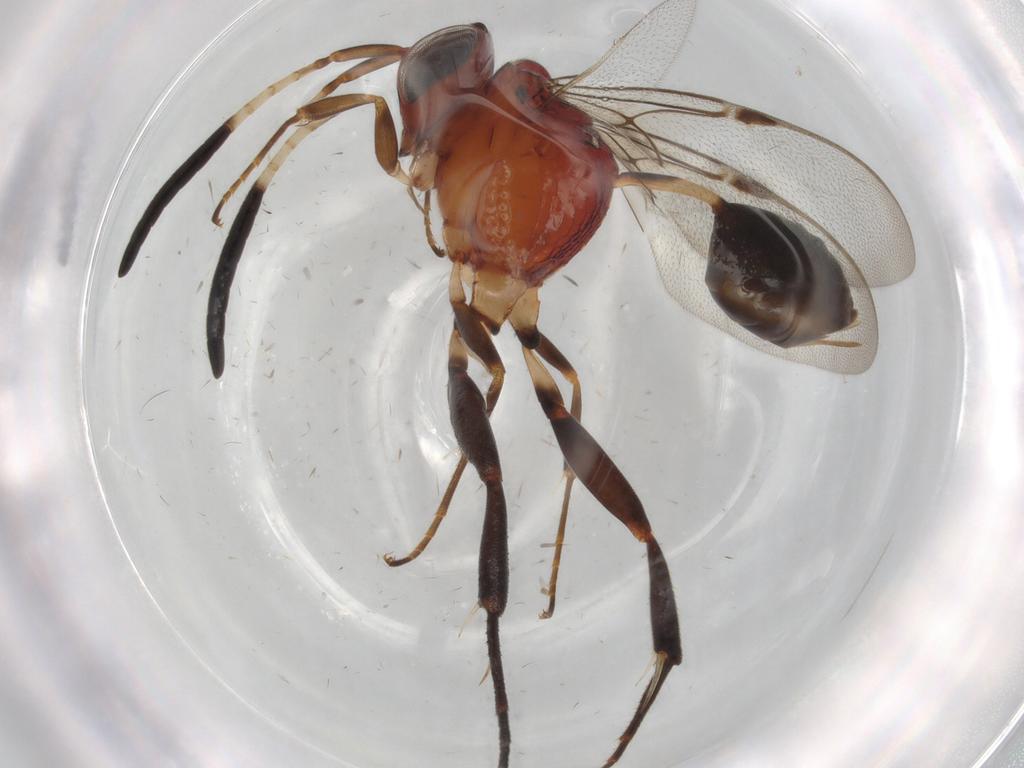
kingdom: Animalia
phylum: Arthropoda
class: Insecta
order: Hymenoptera
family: Evaniidae
